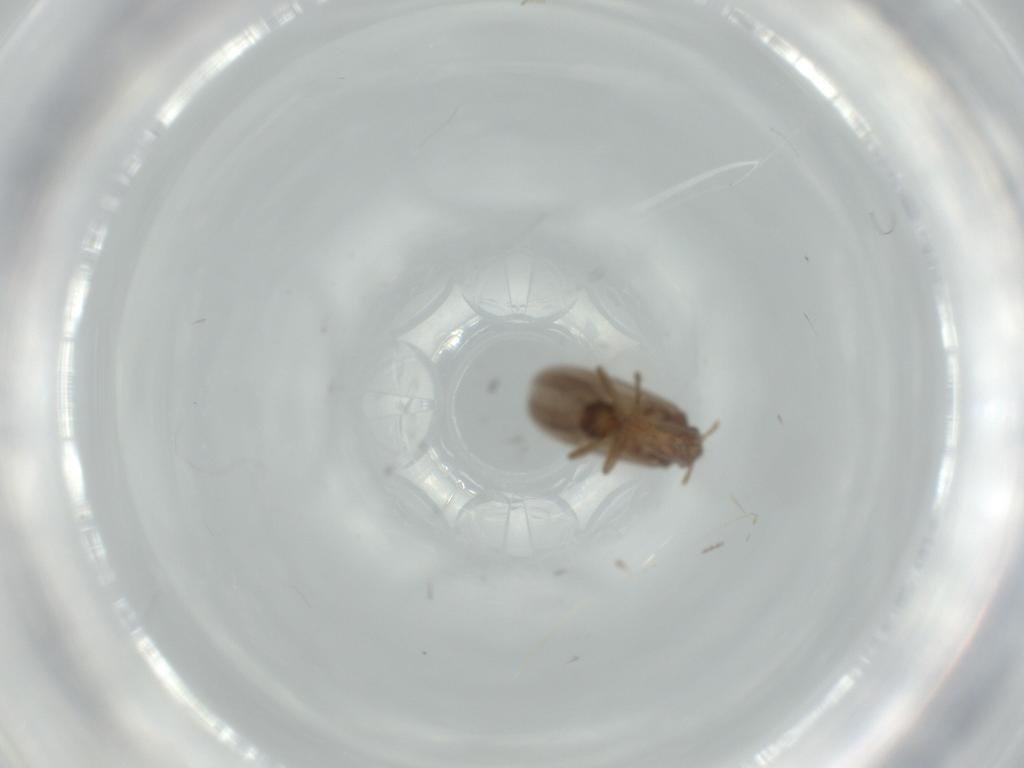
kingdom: Animalia
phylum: Arthropoda
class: Insecta
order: Hemiptera
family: Ceratocombidae
